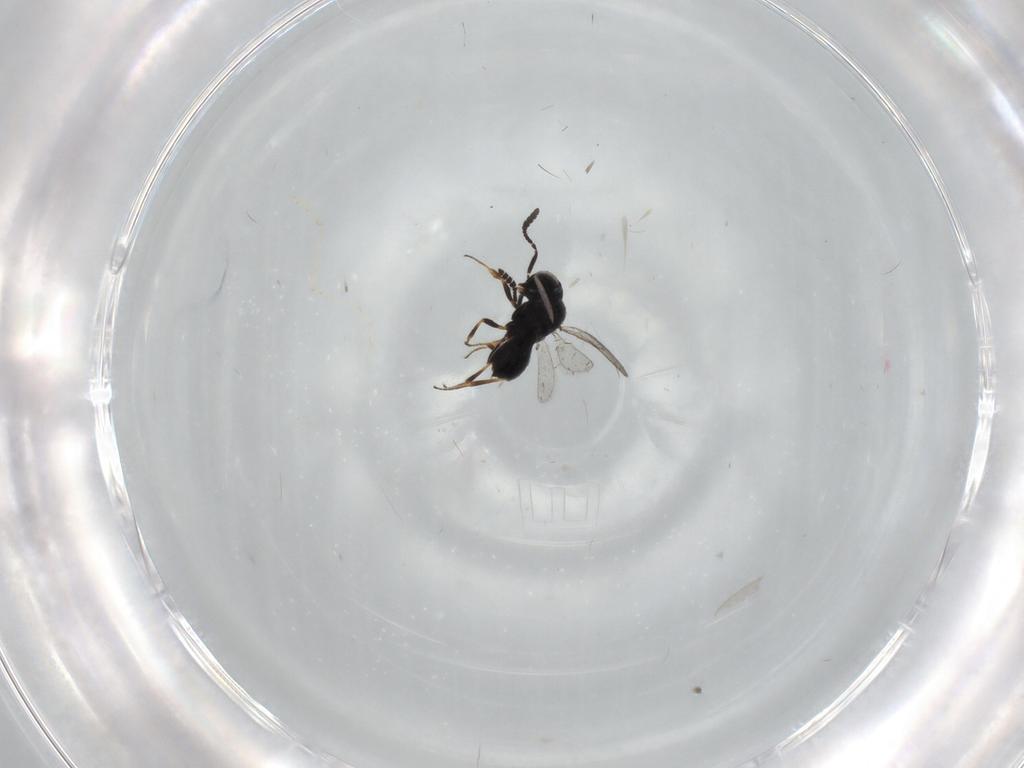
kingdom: Animalia
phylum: Arthropoda
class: Insecta
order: Hymenoptera
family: Scelionidae
